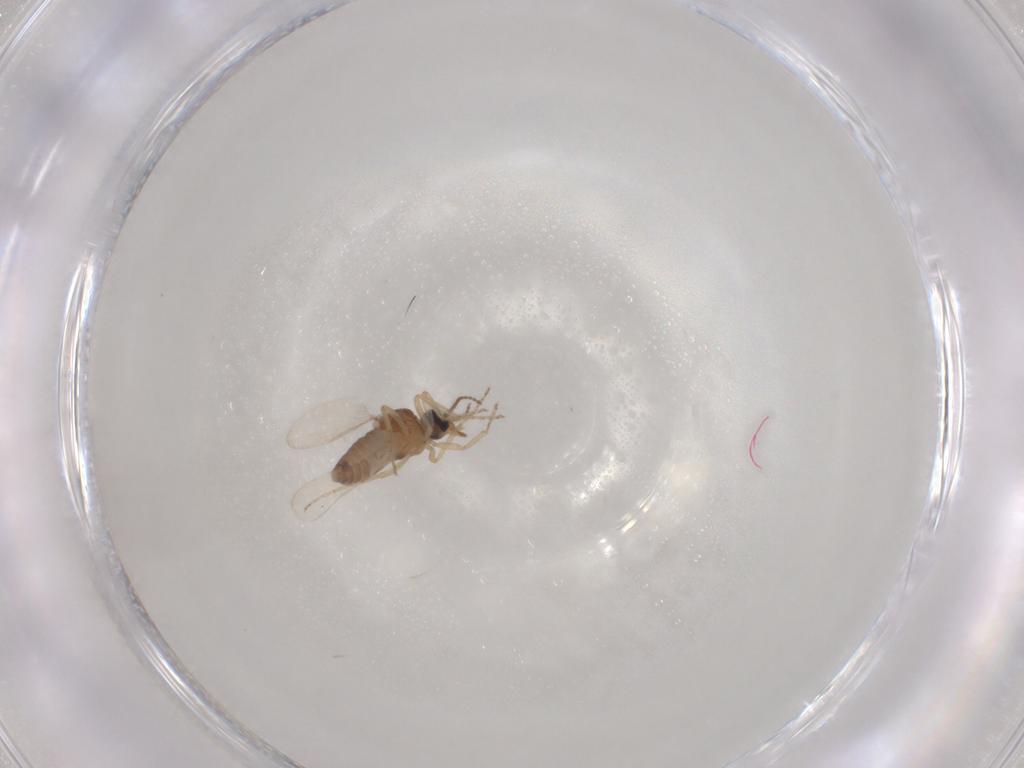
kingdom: Animalia
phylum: Arthropoda
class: Insecta
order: Diptera
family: Ceratopogonidae
